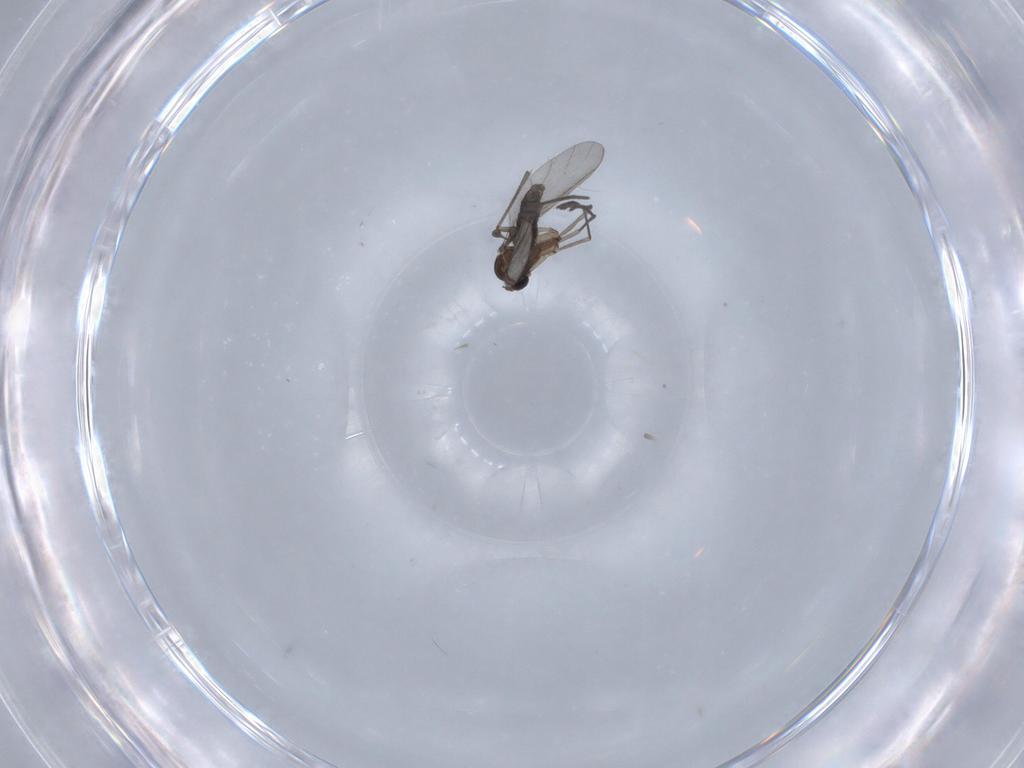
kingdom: Animalia
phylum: Arthropoda
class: Insecta
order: Diptera
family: Sciaridae
